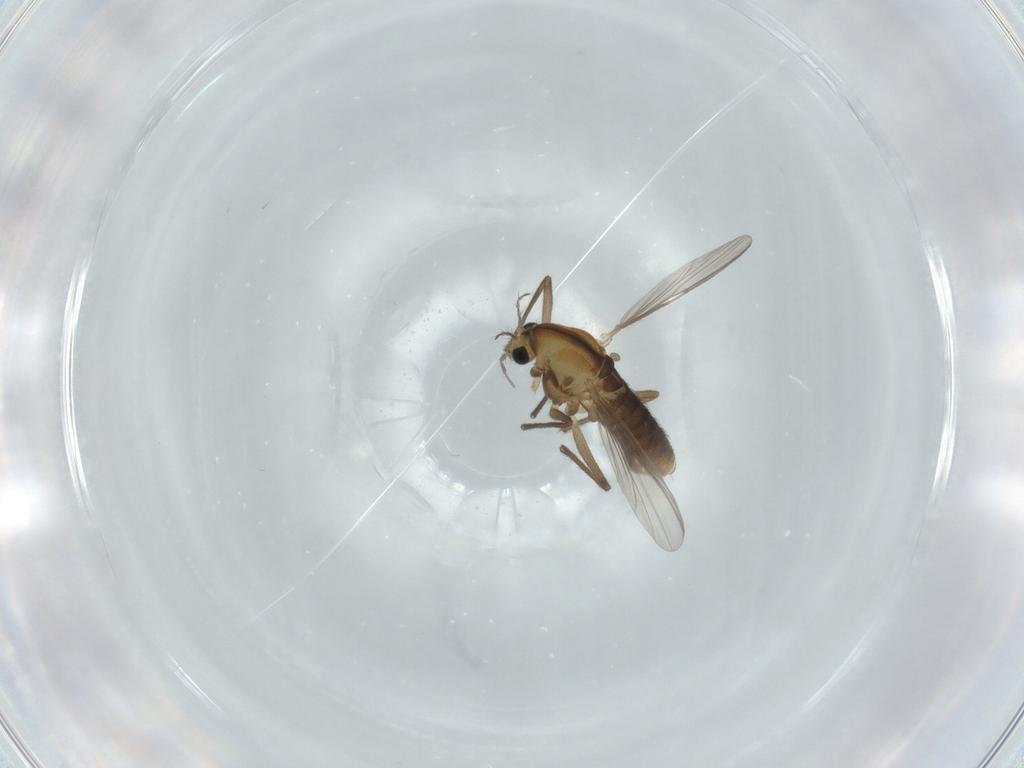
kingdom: Animalia
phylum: Arthropoda
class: Insecta
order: Diptera
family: Chironomidae
